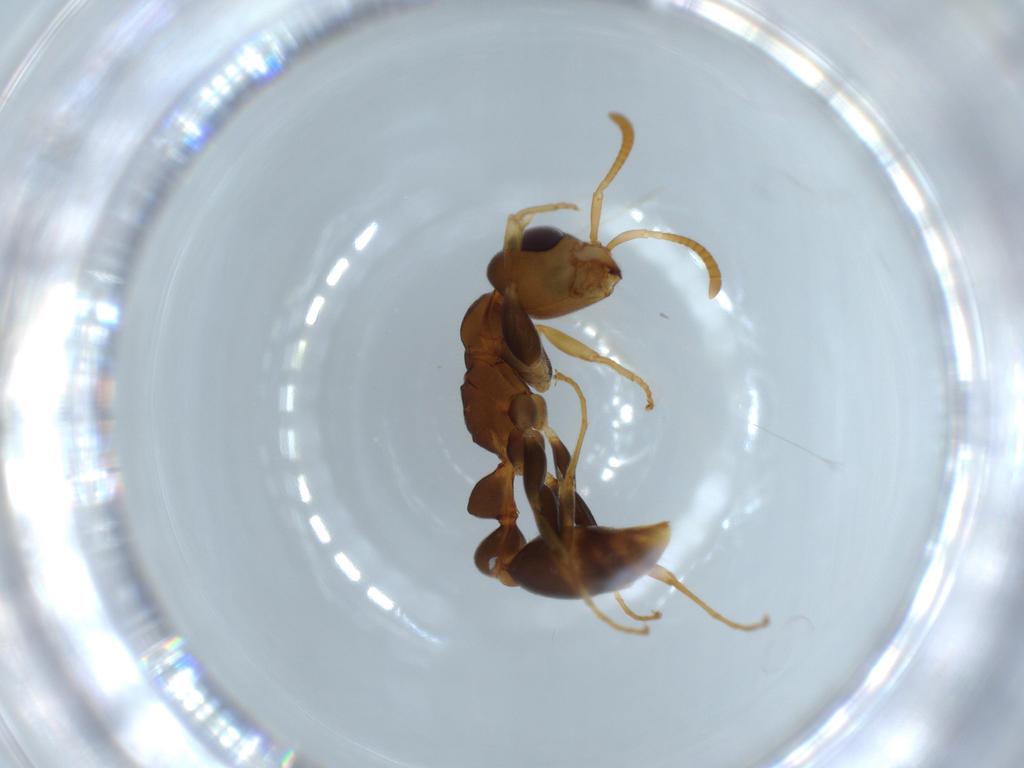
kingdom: Animalia
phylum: Arthropoda
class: Insecta
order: Hymenoptera
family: Formicidae
